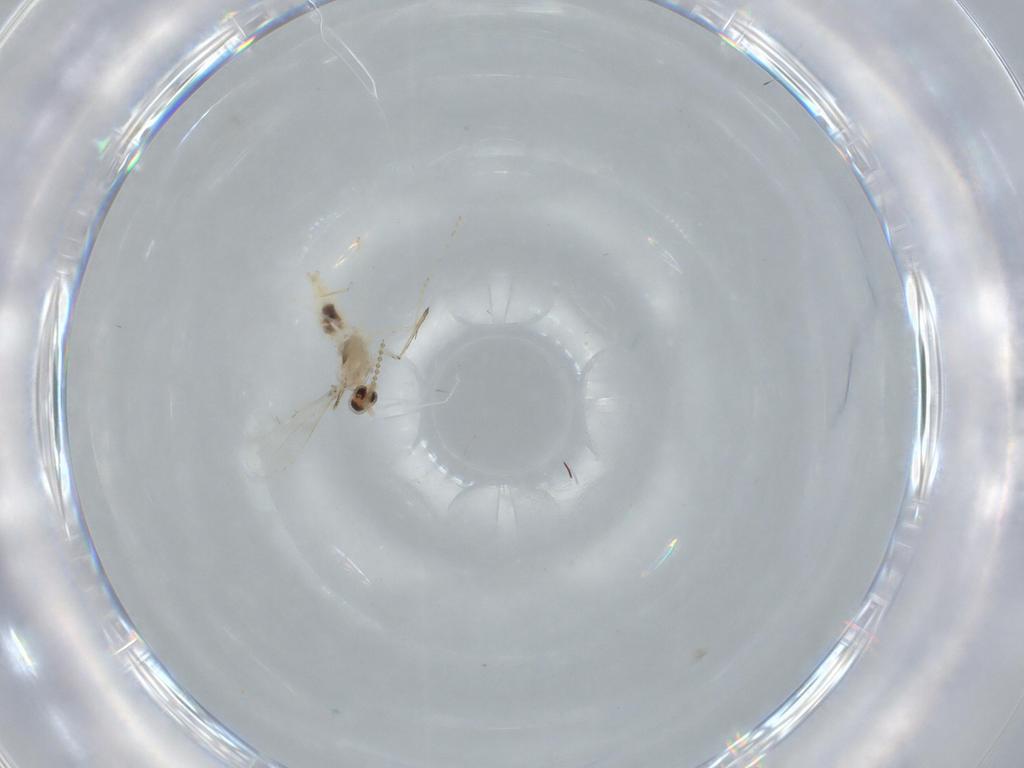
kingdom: Animalia
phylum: Arthropoda
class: Insecta
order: Diptera
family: Cecidomyiidae
